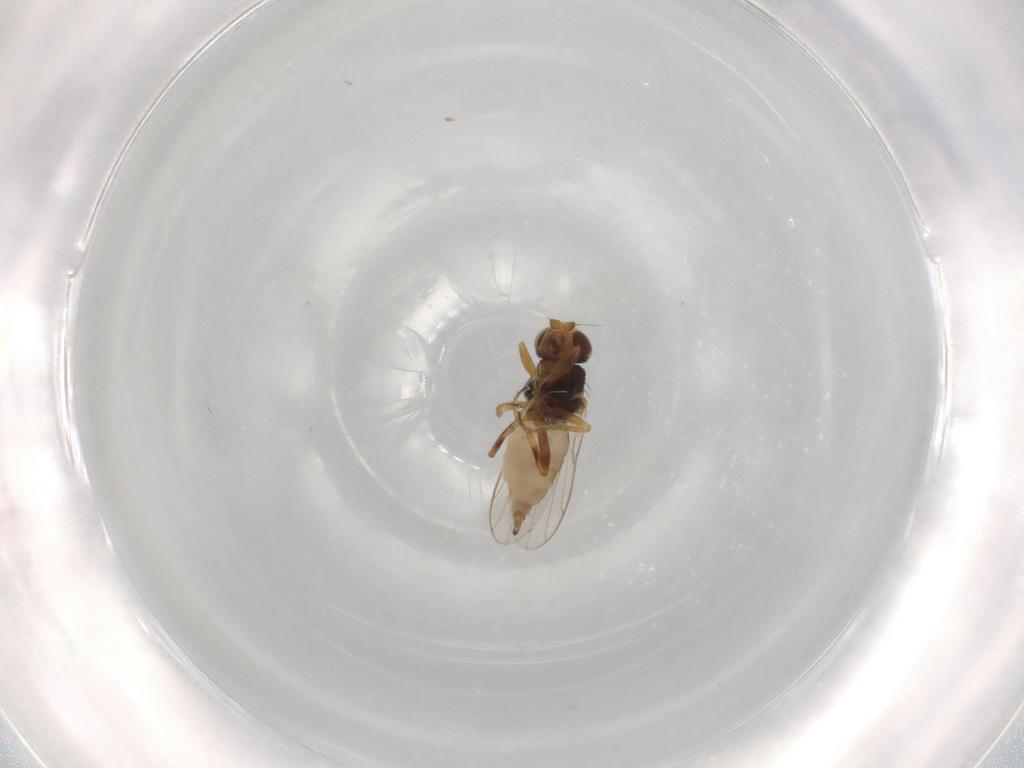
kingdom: Animalia
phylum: Arthropoda
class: Insecta
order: Diptera
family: Chloropidae
